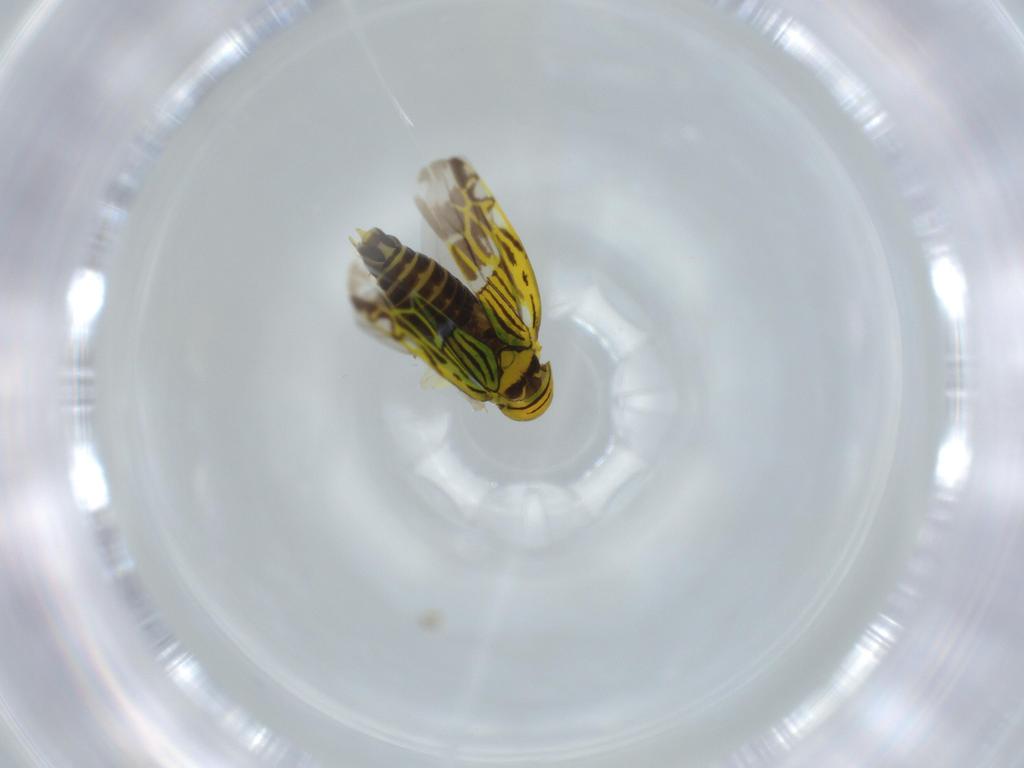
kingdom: Animalia
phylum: Arthropoda
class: Insecta
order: Hemiptera
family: Cicadellidae
